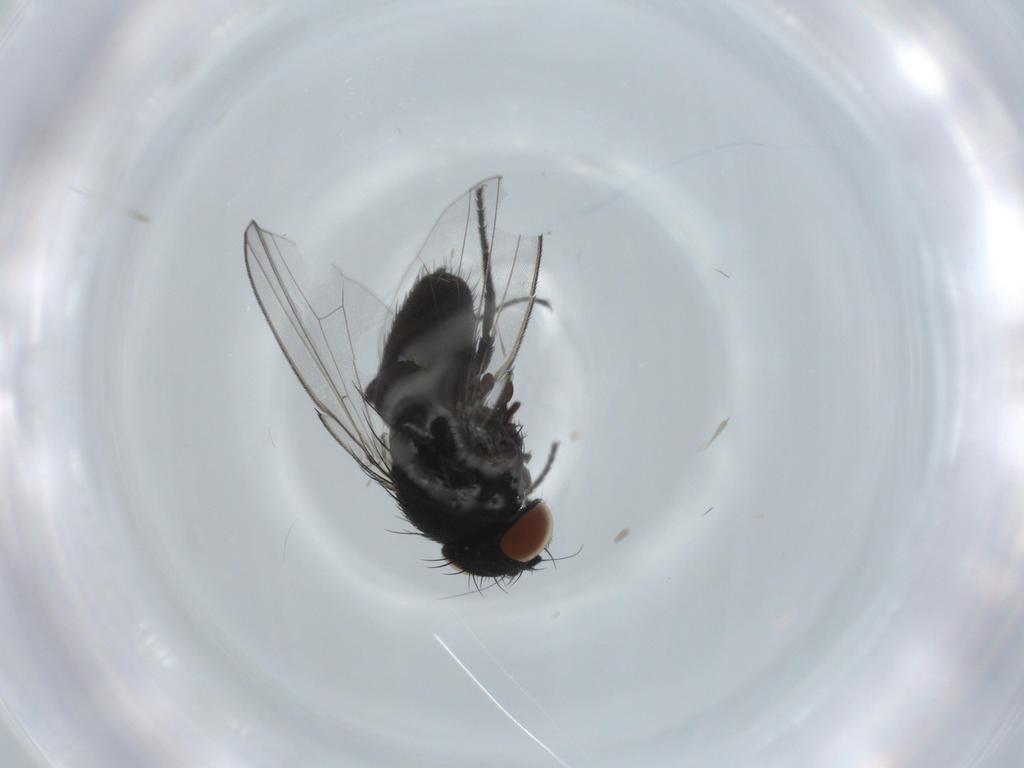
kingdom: Animalia
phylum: Arthropoda
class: Insecta
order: Diptera
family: Milichiidae
